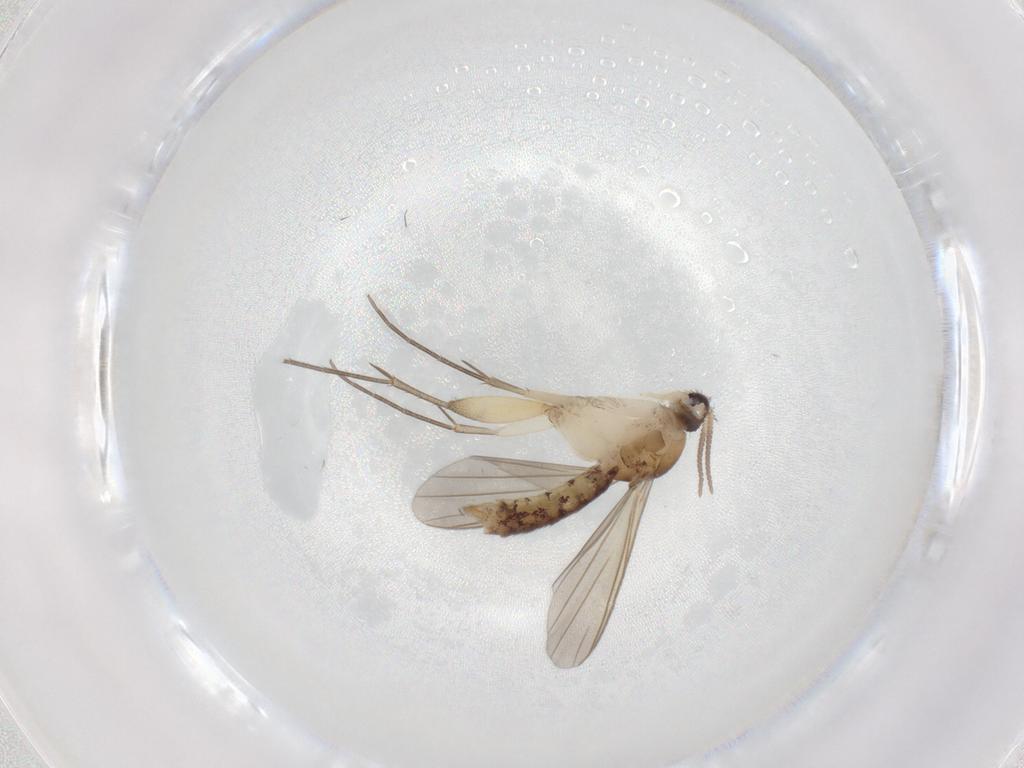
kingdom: Animalia
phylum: Arthropoda
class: Insecta
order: Diptera
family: Mycetophilidae
